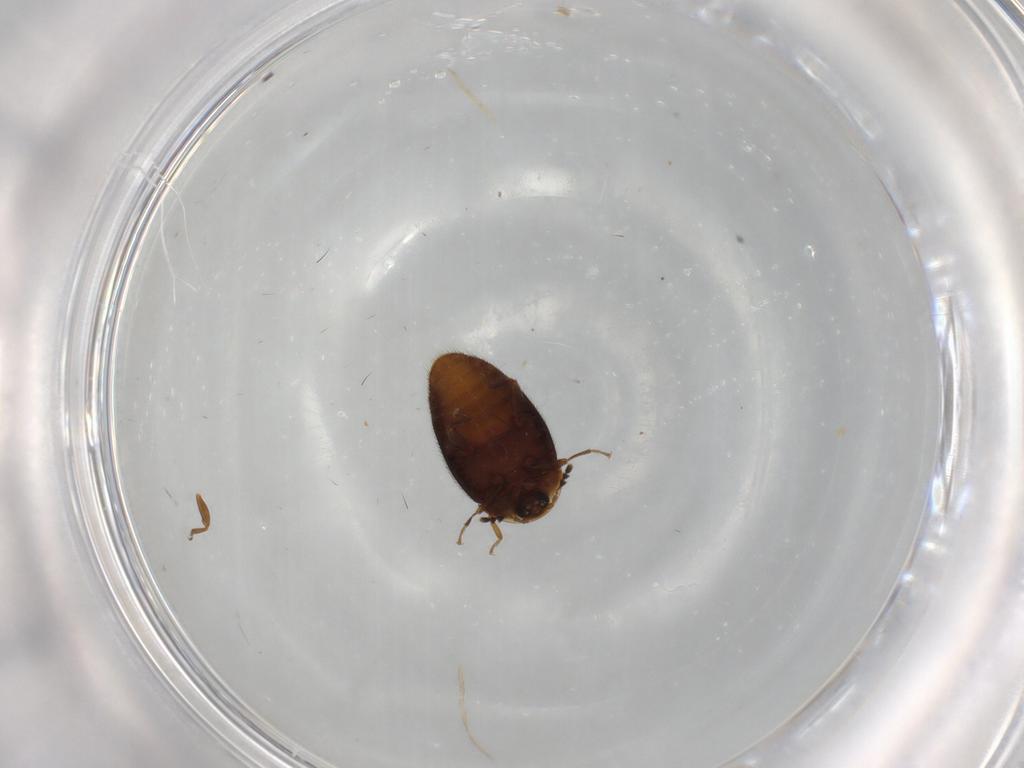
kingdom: Animalia
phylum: Arthropoda
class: Insecta
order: Coleoptera
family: Corylophidae
